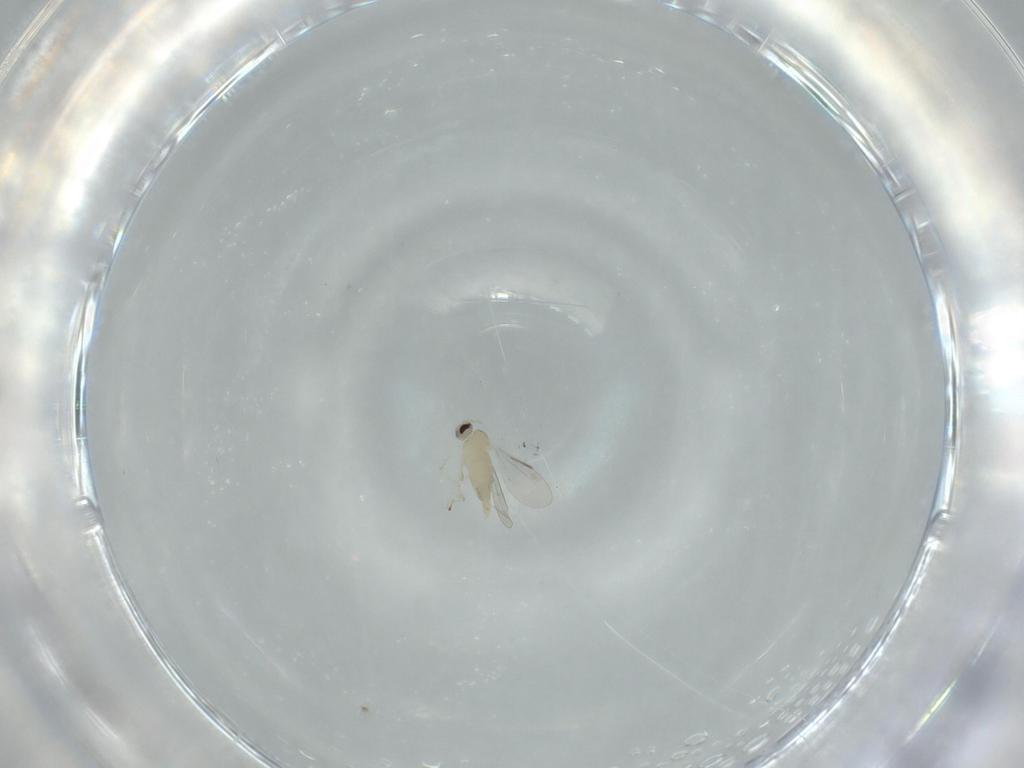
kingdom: Animalia
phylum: Arthropoda
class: Insecta
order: Diptera
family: Cecidomyiidae
